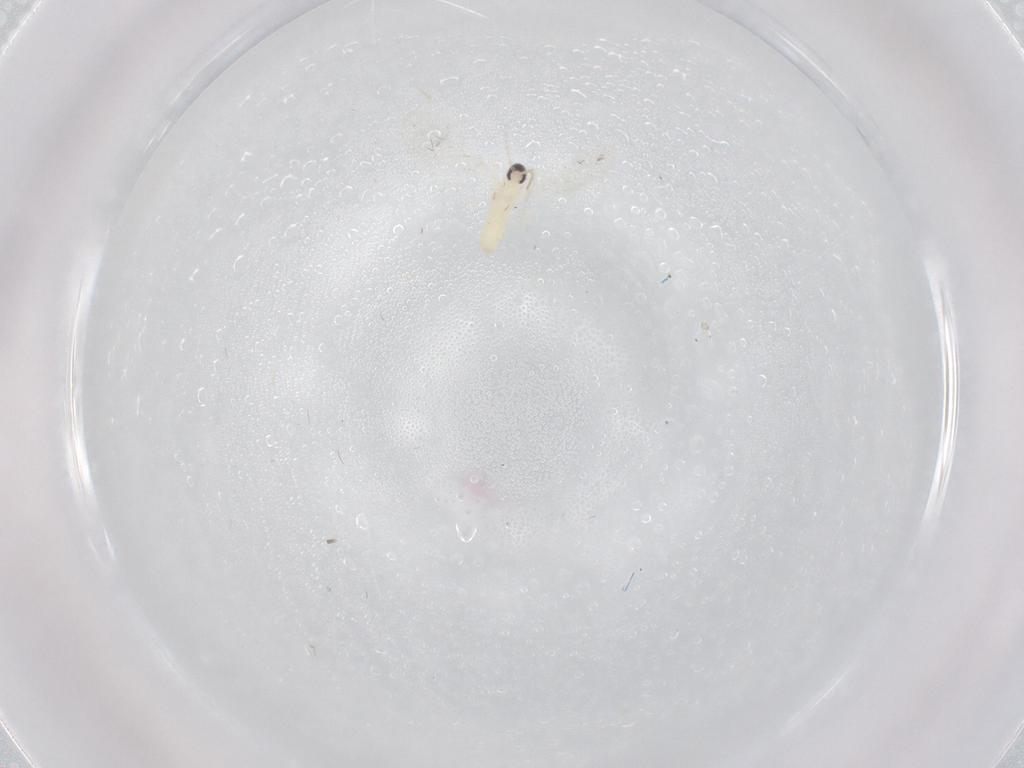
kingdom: Animalia
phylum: Arthropoda
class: Insecta
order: Diptera
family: Cecidomyiidae
